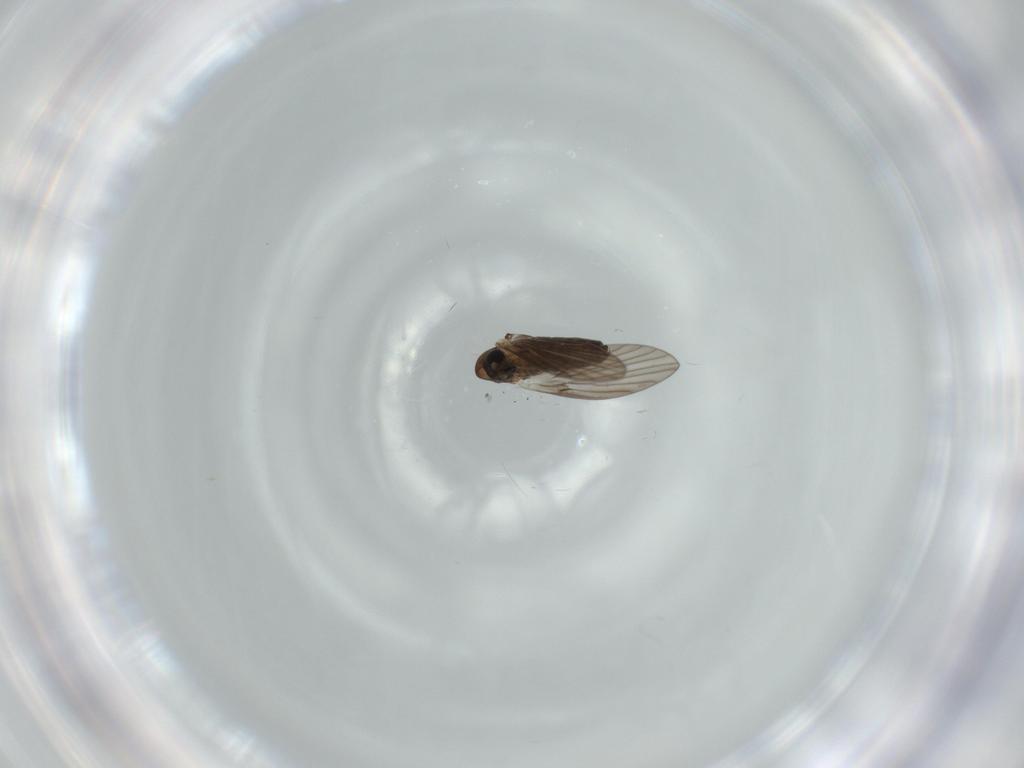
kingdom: Animalia
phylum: Arthropoda
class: Insecta
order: Diptera
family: Psychodidae
